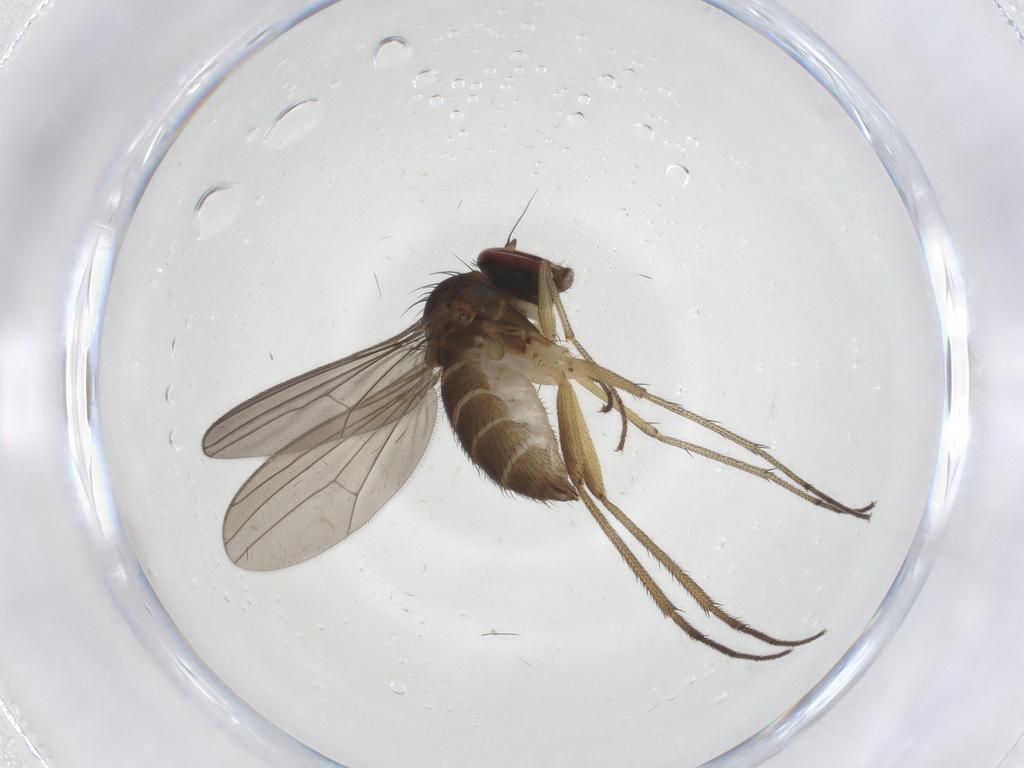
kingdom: Animalia
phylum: Arthropoda
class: Insecta
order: Diptera
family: Dolichopodidae
